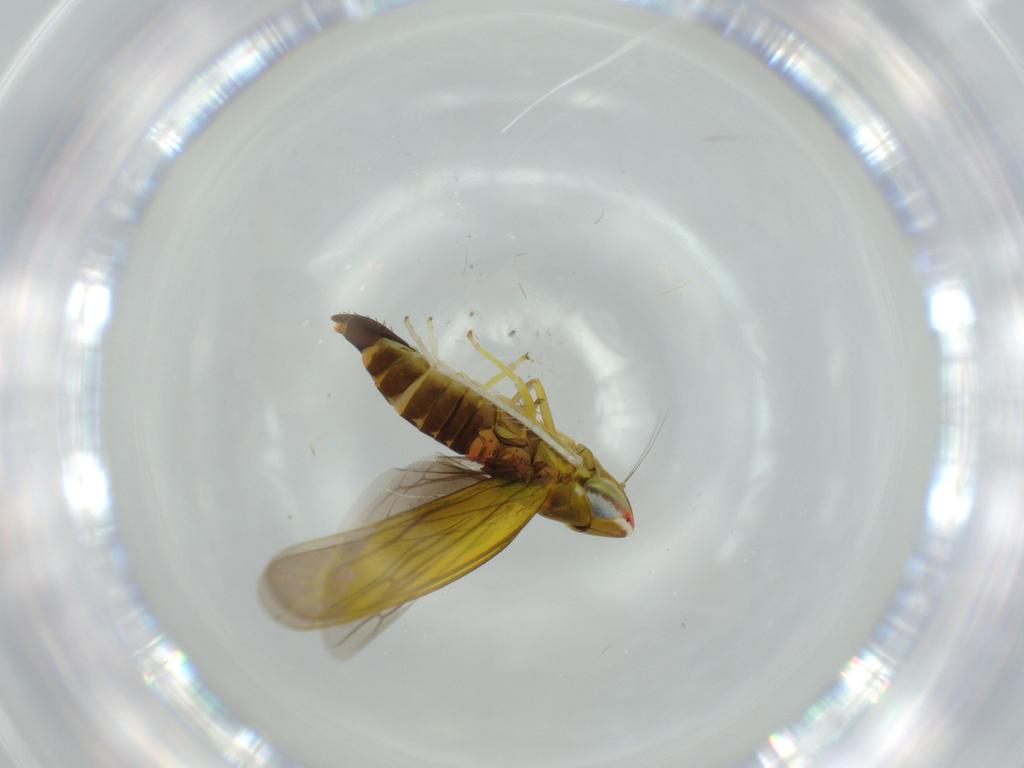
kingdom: Animalia
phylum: Arthropoda
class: Insecta
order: Hemiptera
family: Cicadellidae
